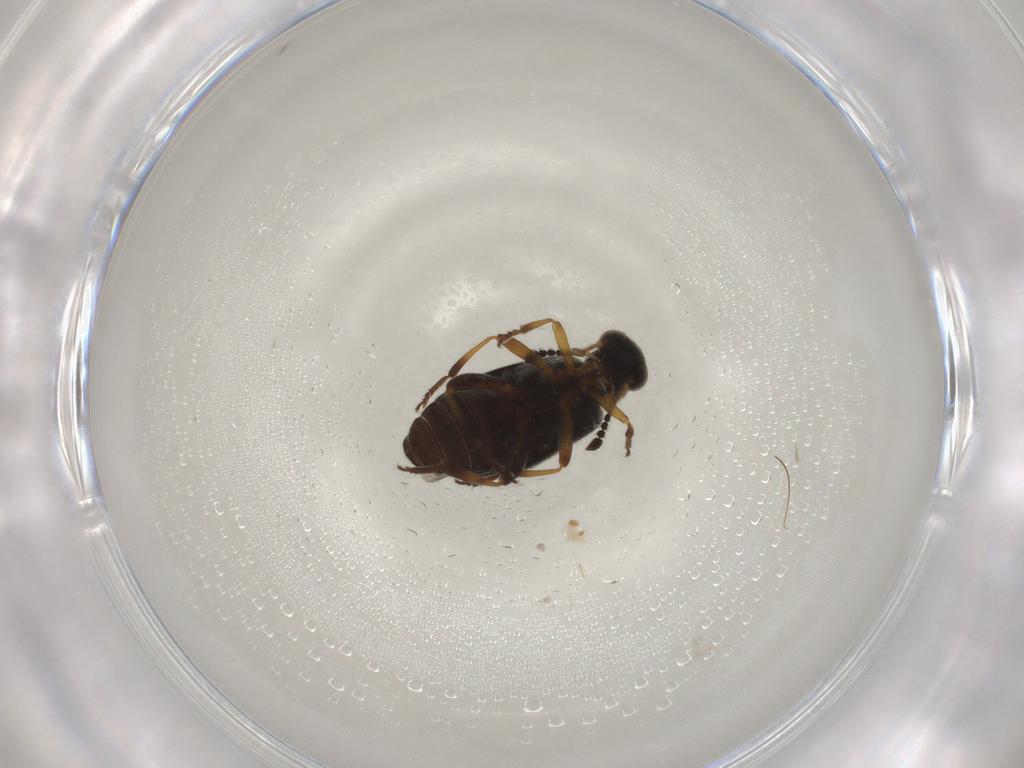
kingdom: Animalia
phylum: Arthropoda
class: Insecta
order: Coleoptera
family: Aderidae
